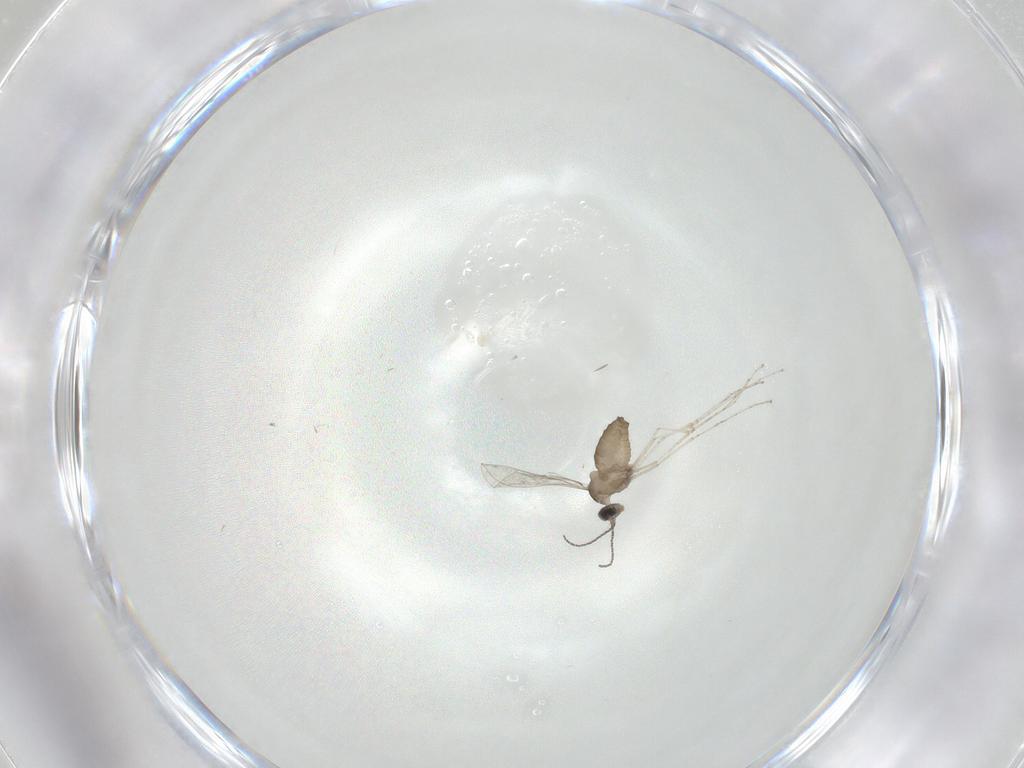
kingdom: Animalia
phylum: Arthropoda
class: Insecta
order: Diptera
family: Cecidomyiidae
